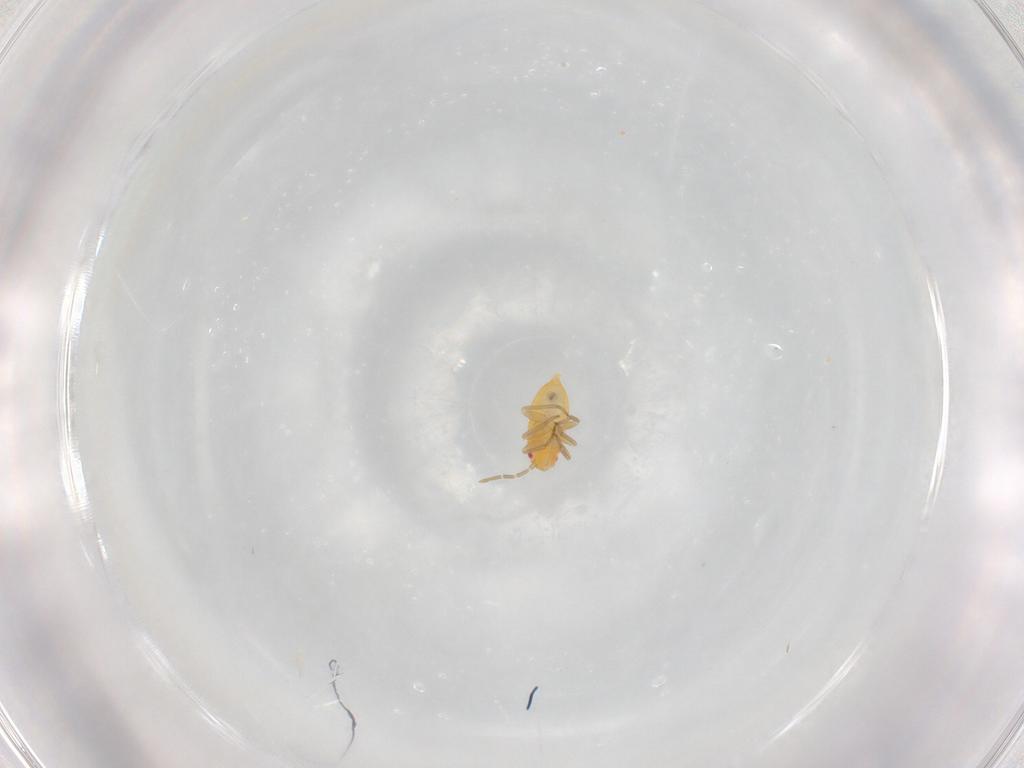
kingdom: Animalia
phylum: Arthropoda
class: Insecta
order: Hemiptera
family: Miridae
